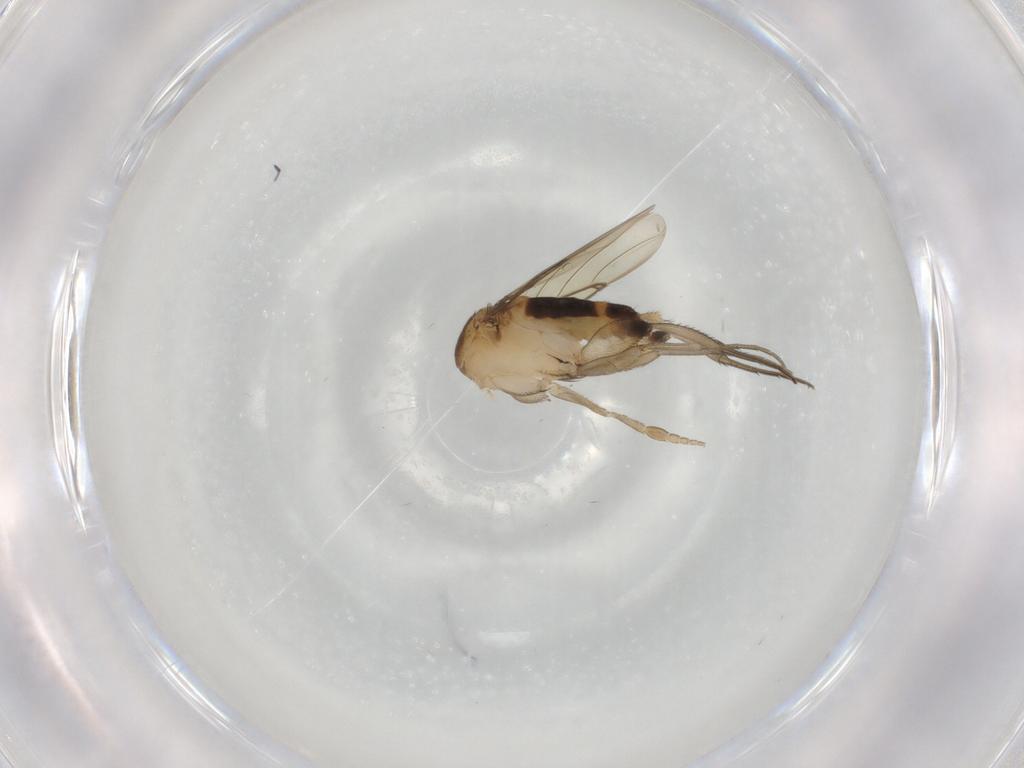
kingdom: Animalia
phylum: Arthropoda
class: Insecta
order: Diptera
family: Phoridae
